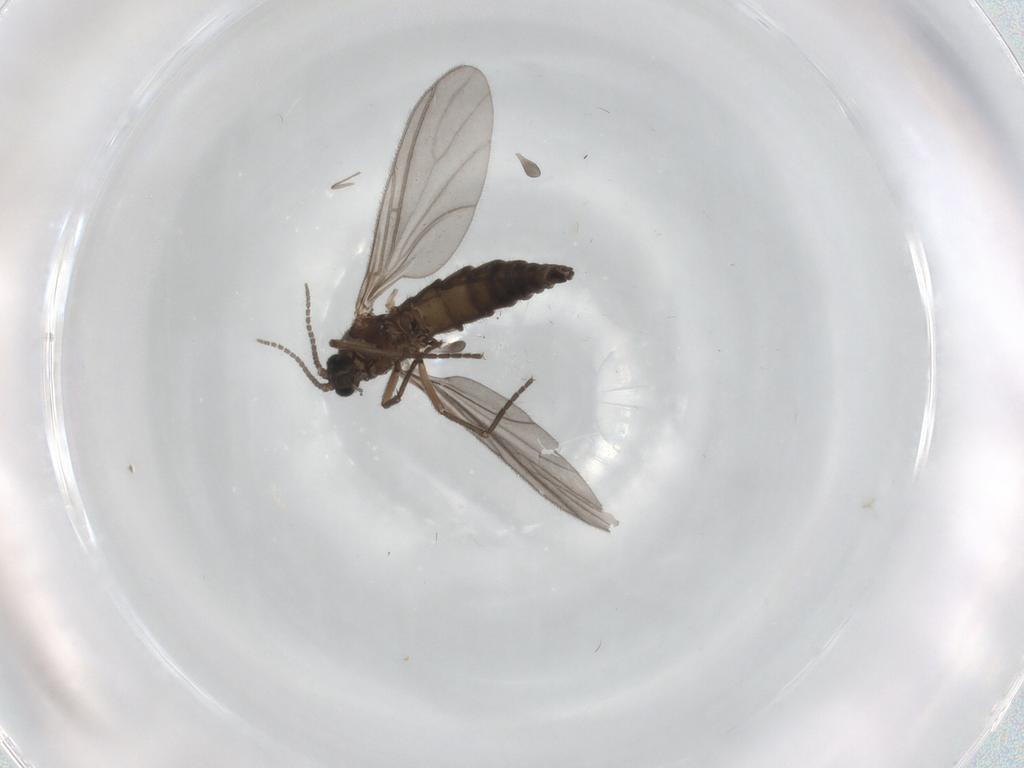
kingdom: Animalia
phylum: Arthropoda
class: Insecta
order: Diptera
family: Sciaridae
